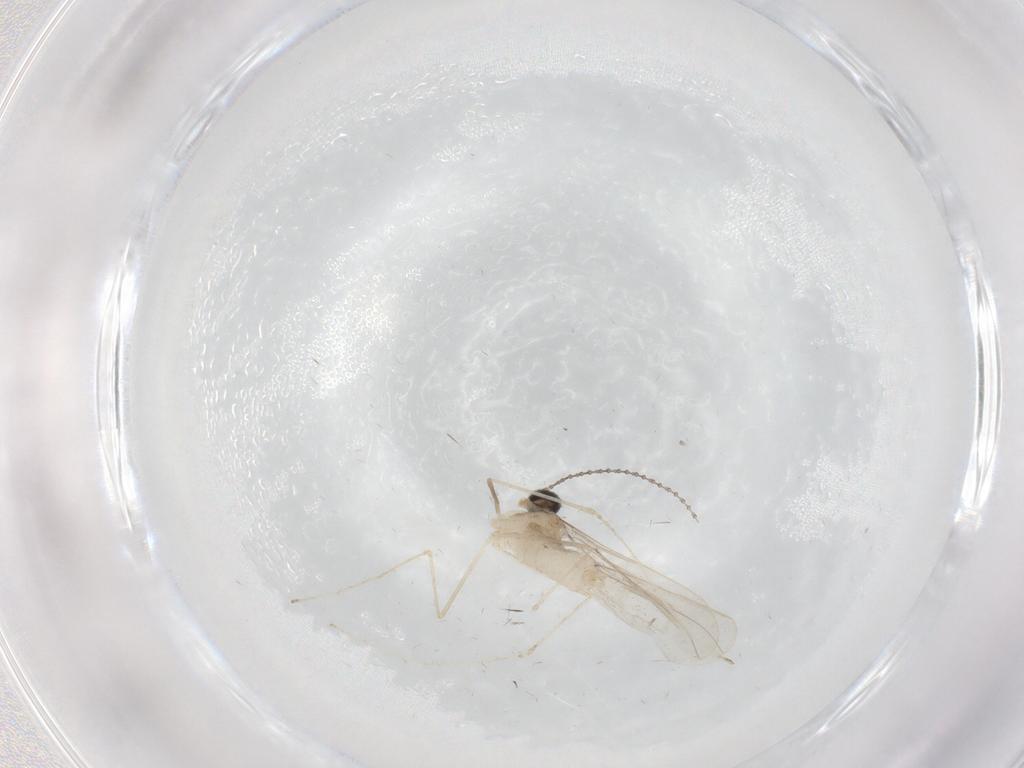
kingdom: Animalia
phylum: Arthropoda
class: Insecta
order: Diptera
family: Cecidomyiidae
